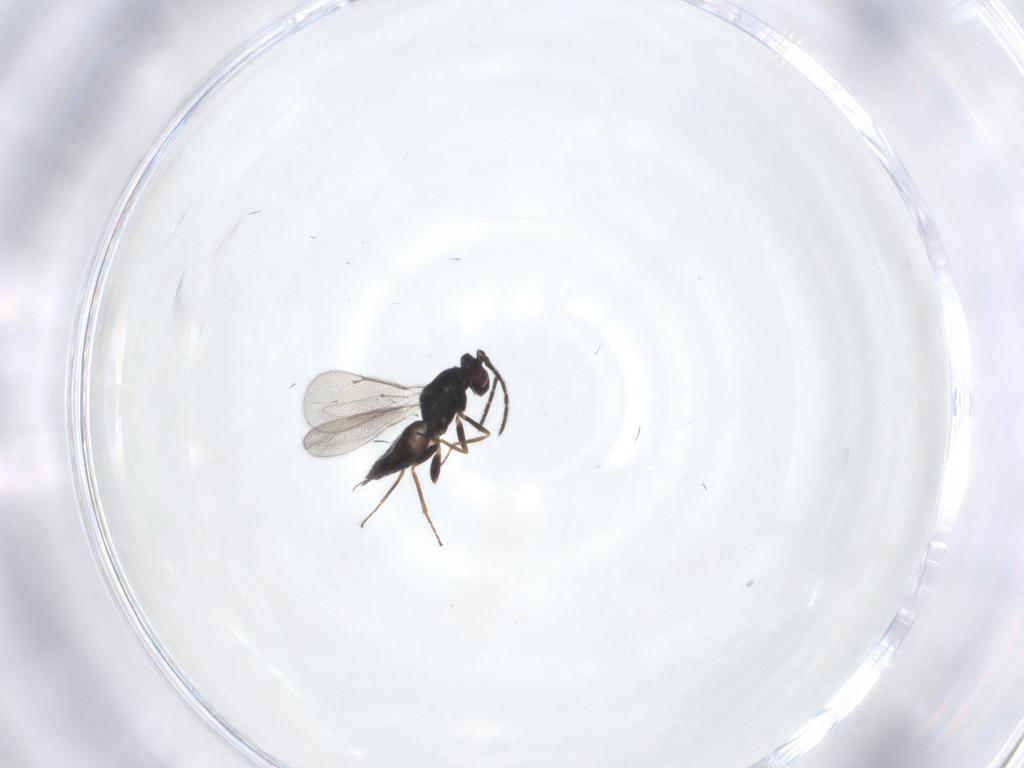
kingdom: Animalia
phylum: Arthropoda
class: Insecta
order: Hymenoptera
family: Eulophidae
